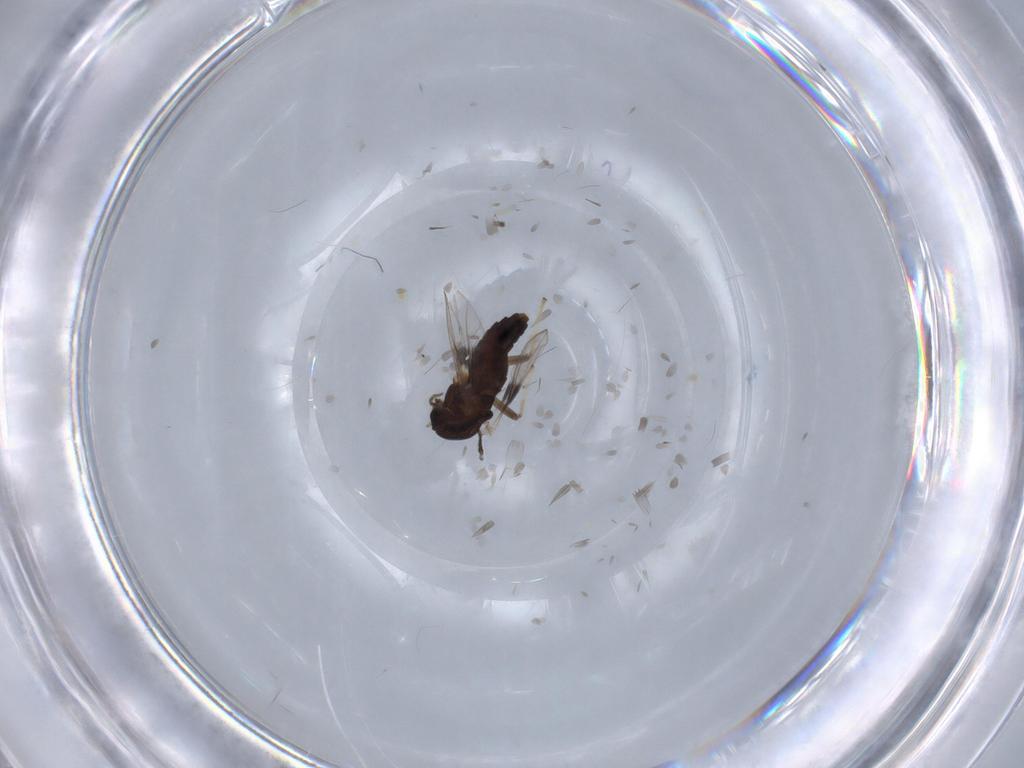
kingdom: Animalia
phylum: Arthropoda
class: Insecta
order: Diptera
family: Chironomidae
